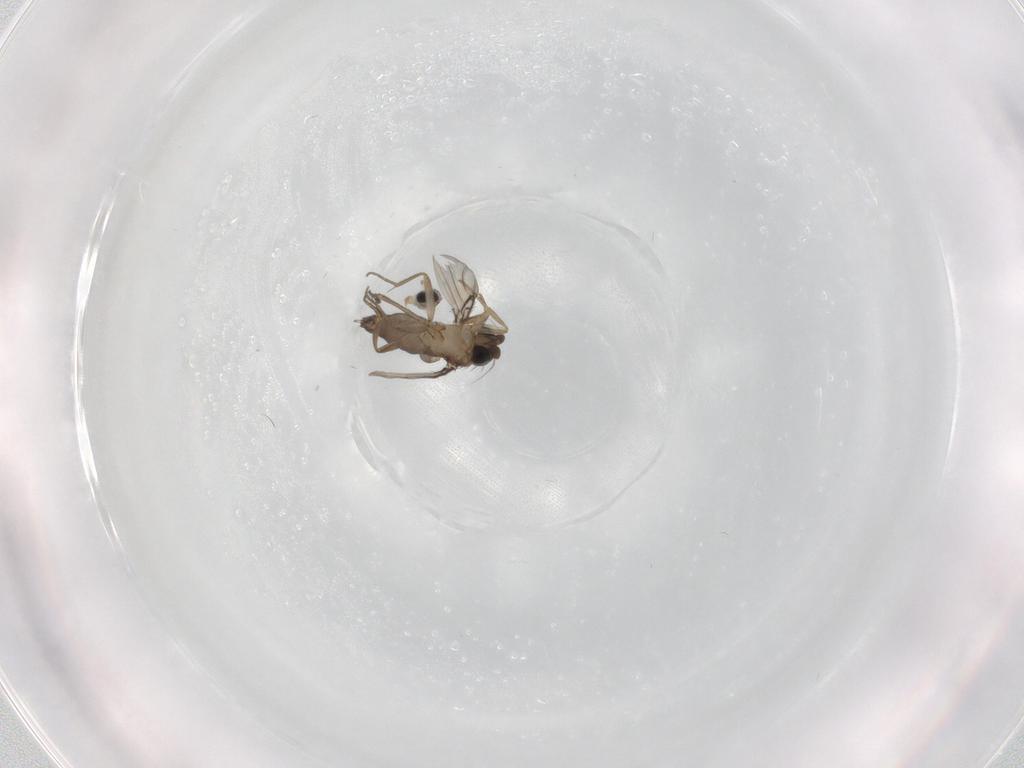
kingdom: Animalia
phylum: Arthropoda
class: Insecta
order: Diptera
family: Cecidomyiidae
